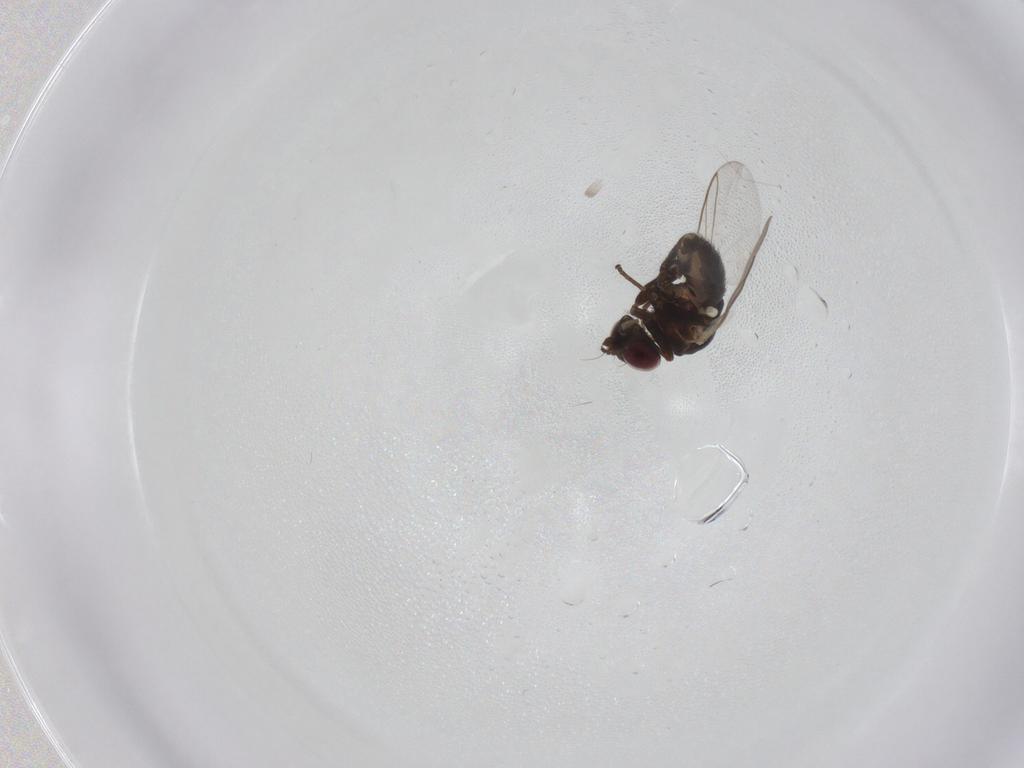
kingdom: Animalia
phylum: Arthropoda
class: Insecta
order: Diptera
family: Agromyzidae
